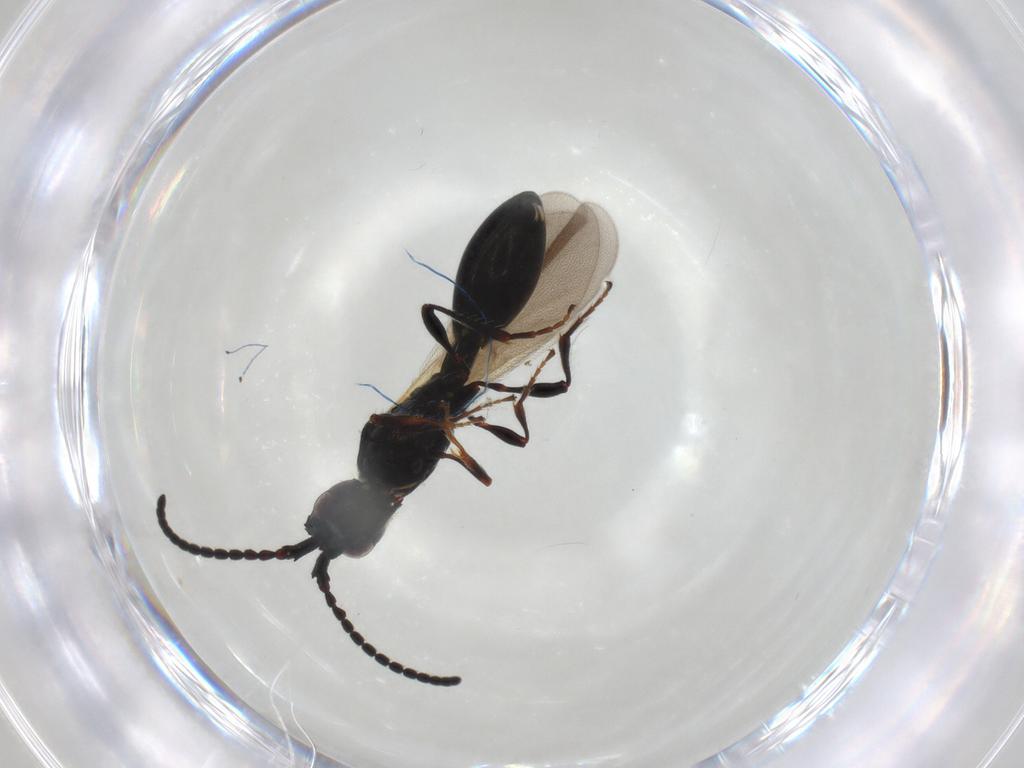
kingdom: Animalia
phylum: Arthropoda
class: Insecta
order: Hymenoptera
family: Diapriidae
